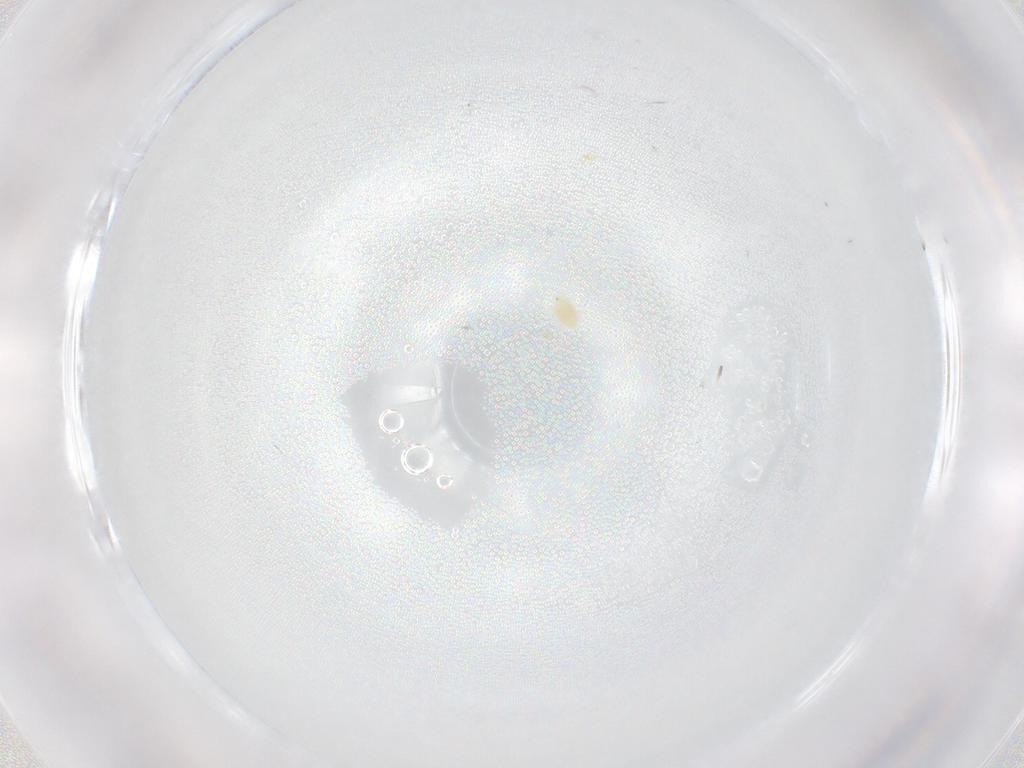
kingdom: Animalia
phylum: Arthropoda
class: Arachnida
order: Trombidiformes
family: Tetranychidae
